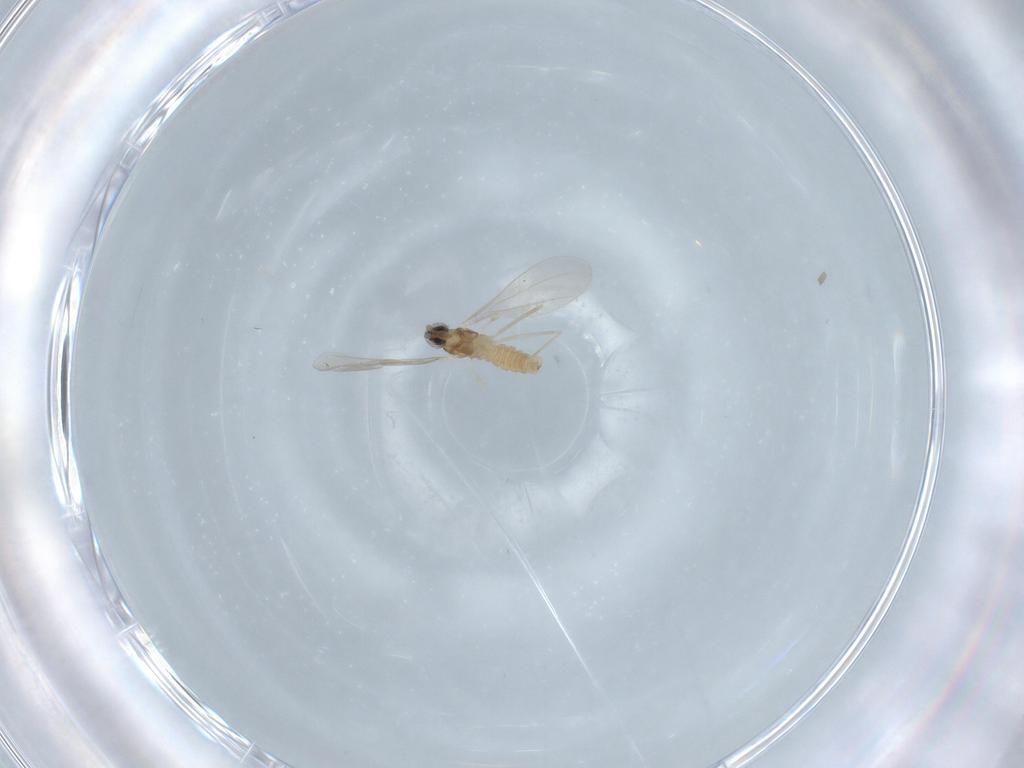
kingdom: Animalia
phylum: Arthropoda
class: Insecta
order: Diptera
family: Cecidomyiidae
